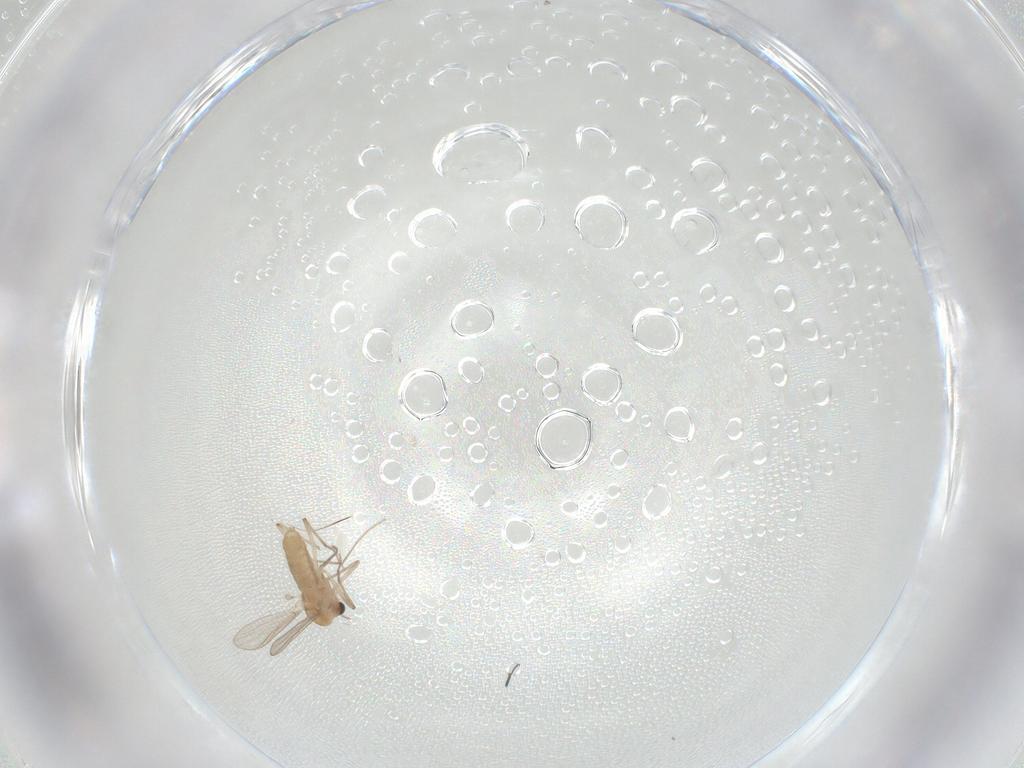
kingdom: Animalia
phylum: Arthropoda
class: Insecta
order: Diptera
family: Chironomidae
